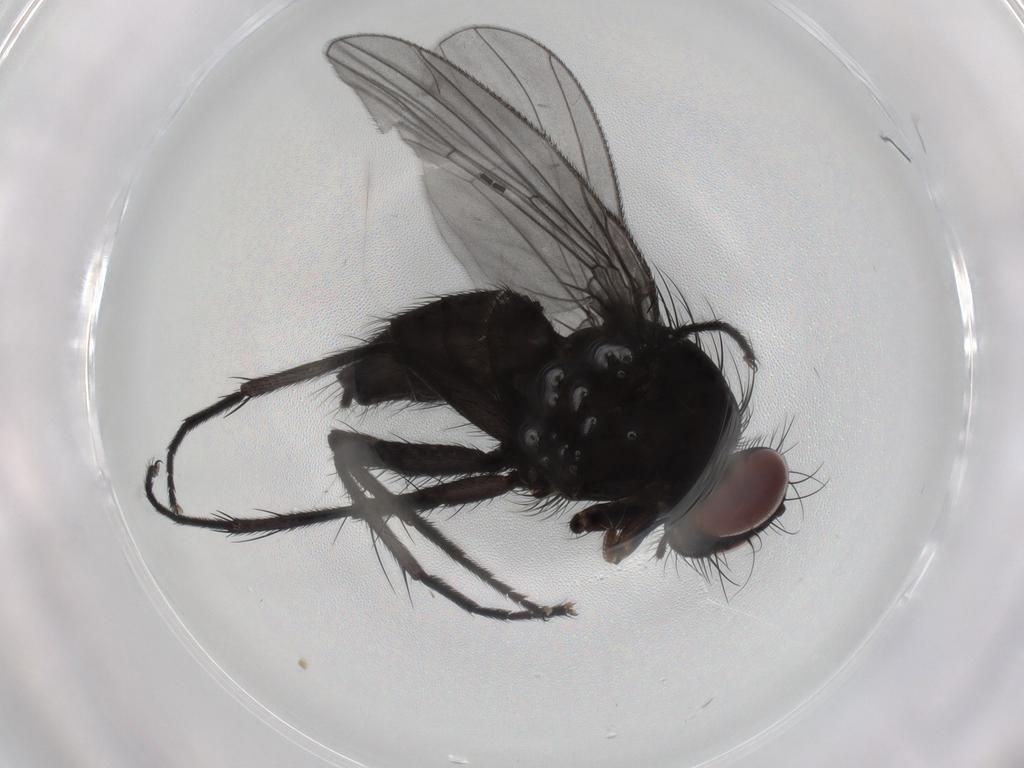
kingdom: Animalia
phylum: Arthropoda
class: Insecta
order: Diptera
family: Muscidae
